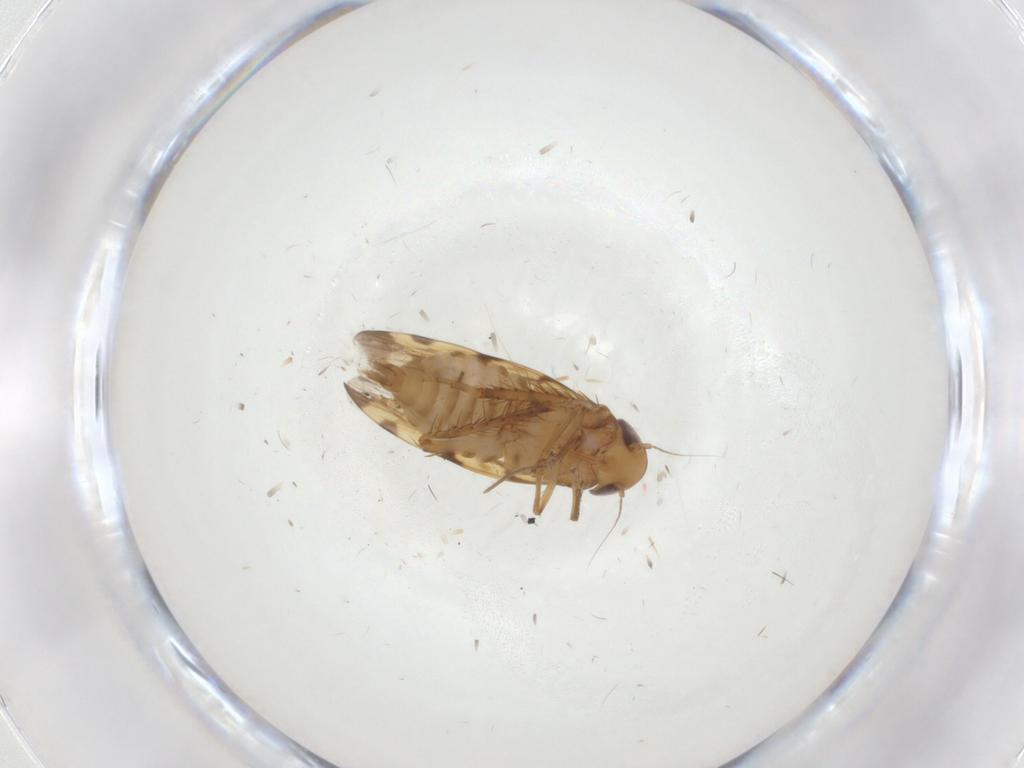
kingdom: Animalia
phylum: Arthropoda
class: Insecta
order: Hemiptera
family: Cicadellidae
